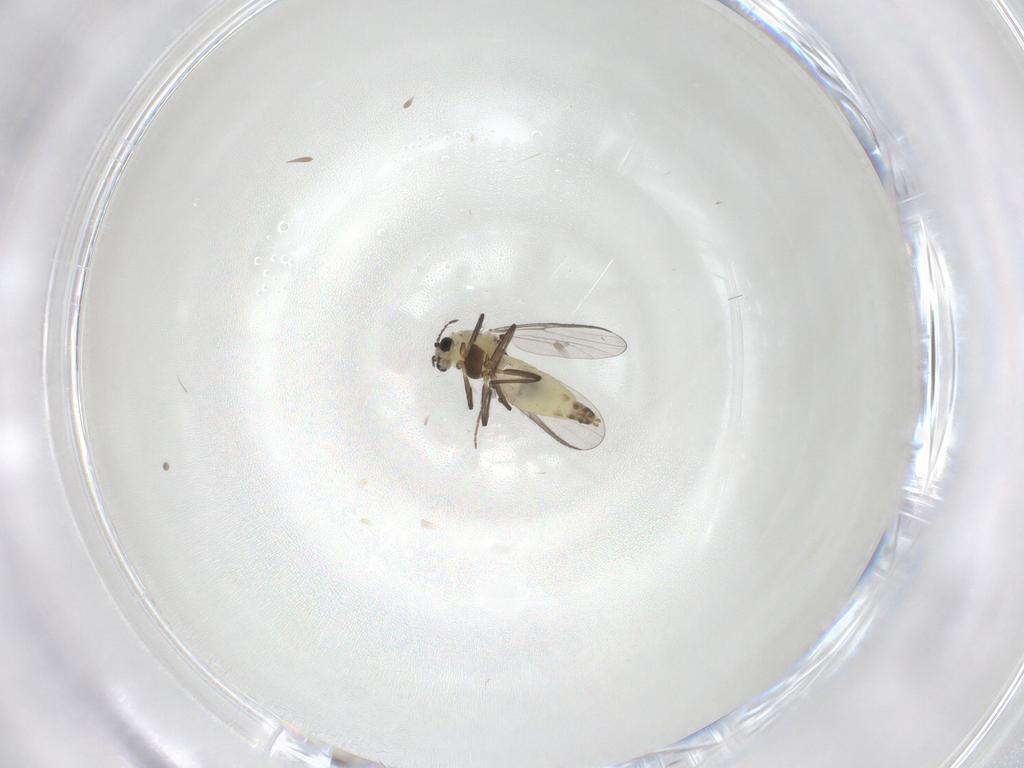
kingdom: Animalia
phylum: Arthropoda
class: Insecta
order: Diptera
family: Chironomidae
